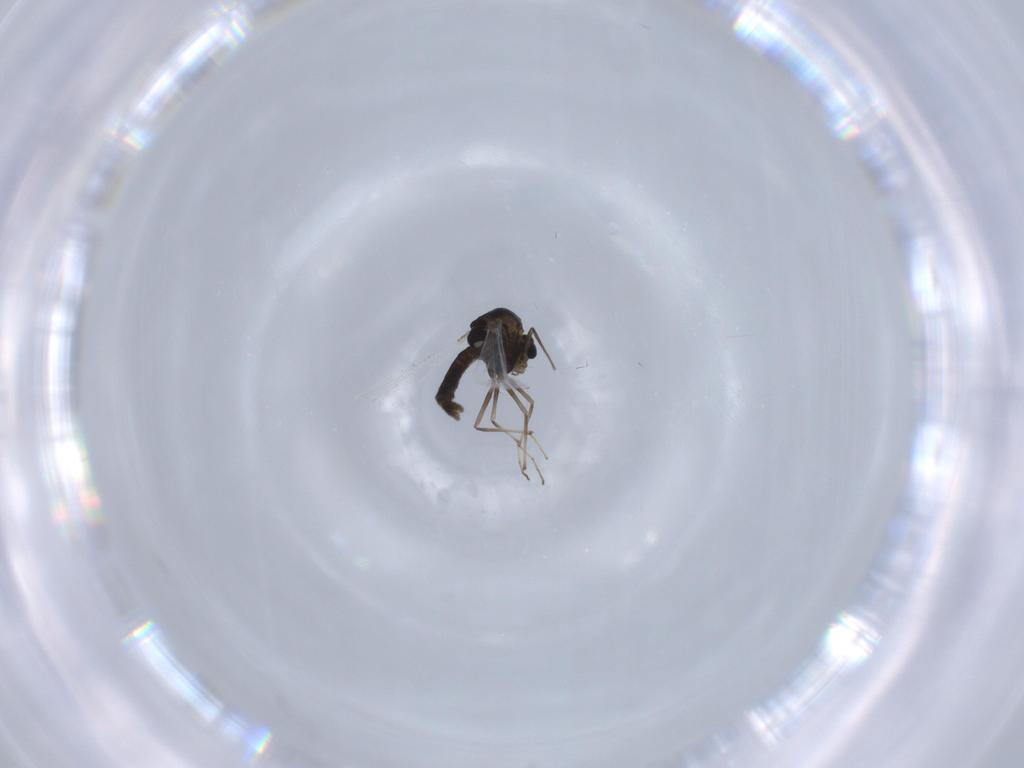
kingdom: Animalia
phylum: Arthropoda
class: Insecta
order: Diptera
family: Chironomidae
